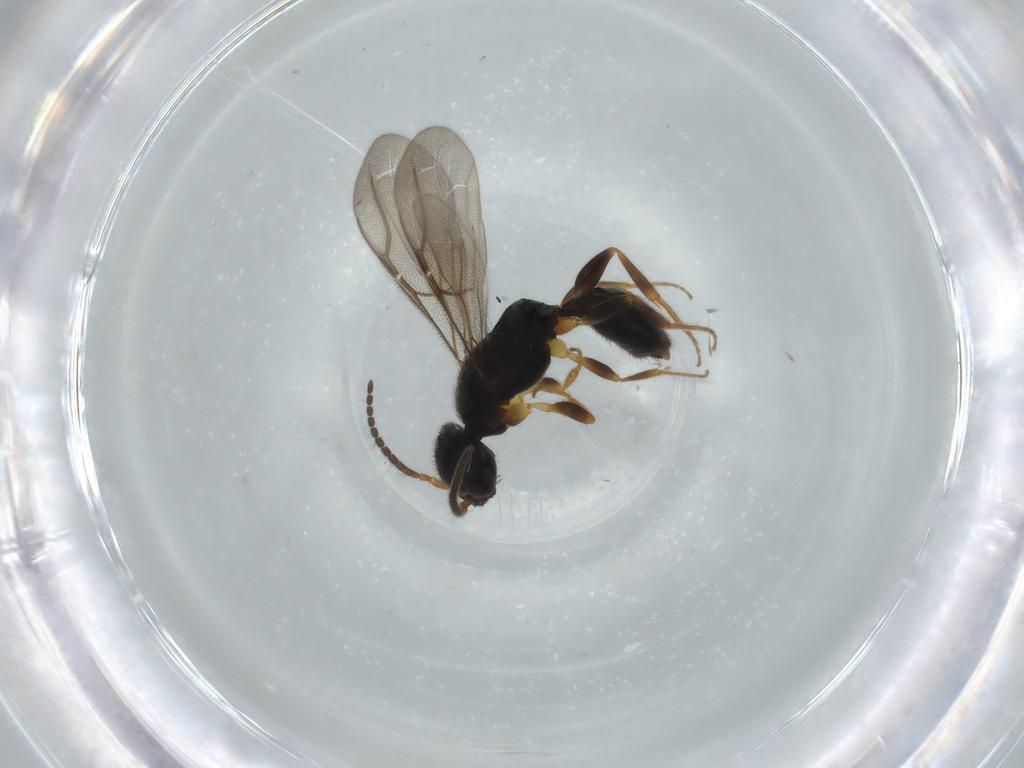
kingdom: Animalia
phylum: Arthropoda
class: Insecta
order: Hymenoptera
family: Bethylidae
